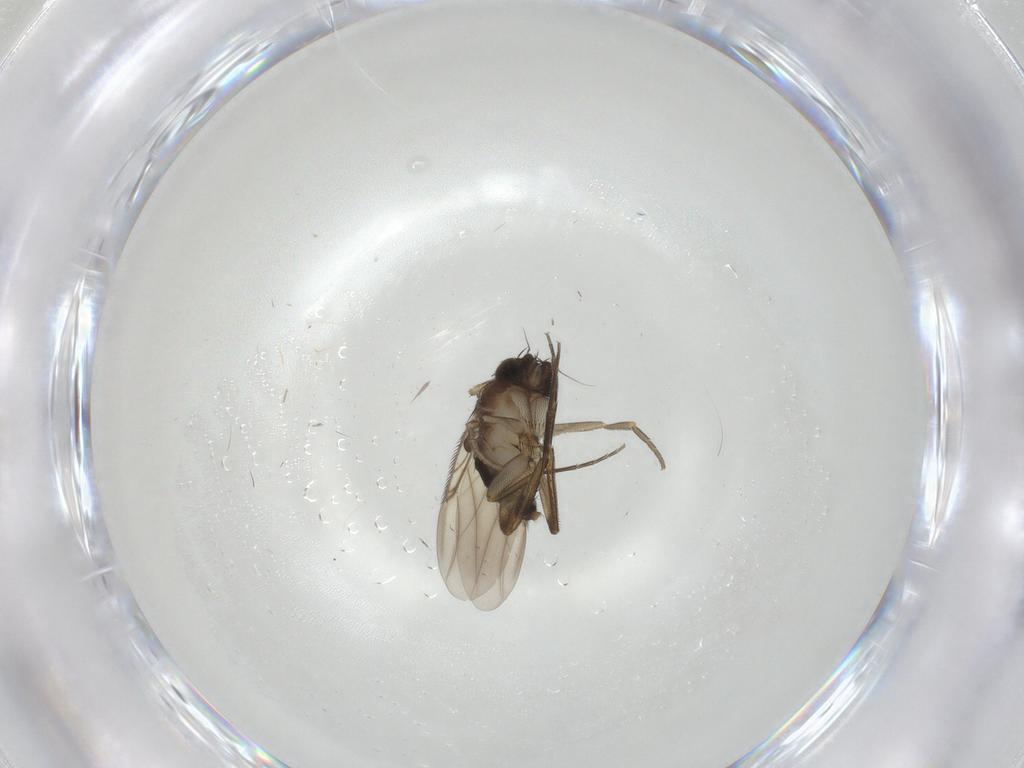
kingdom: Animalia
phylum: Arthropoda
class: Insecta
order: Diptera
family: Phoridae
